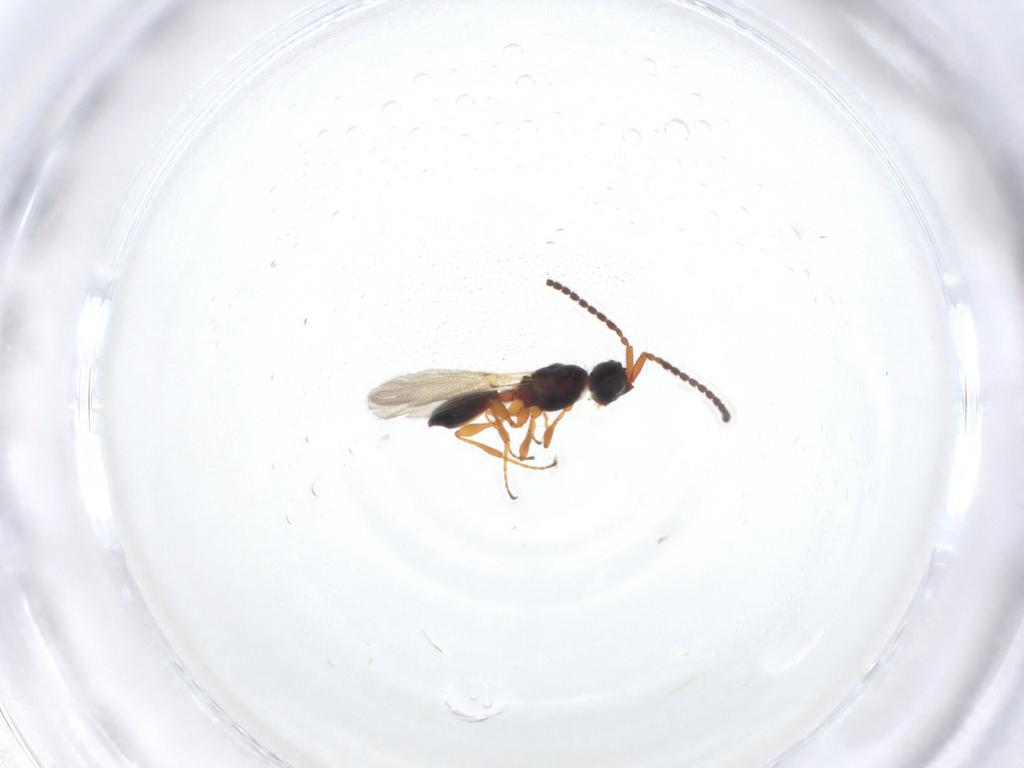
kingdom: Animalia
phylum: Arthropoda
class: Insecta
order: Hymenoptera
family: Diapriidae
